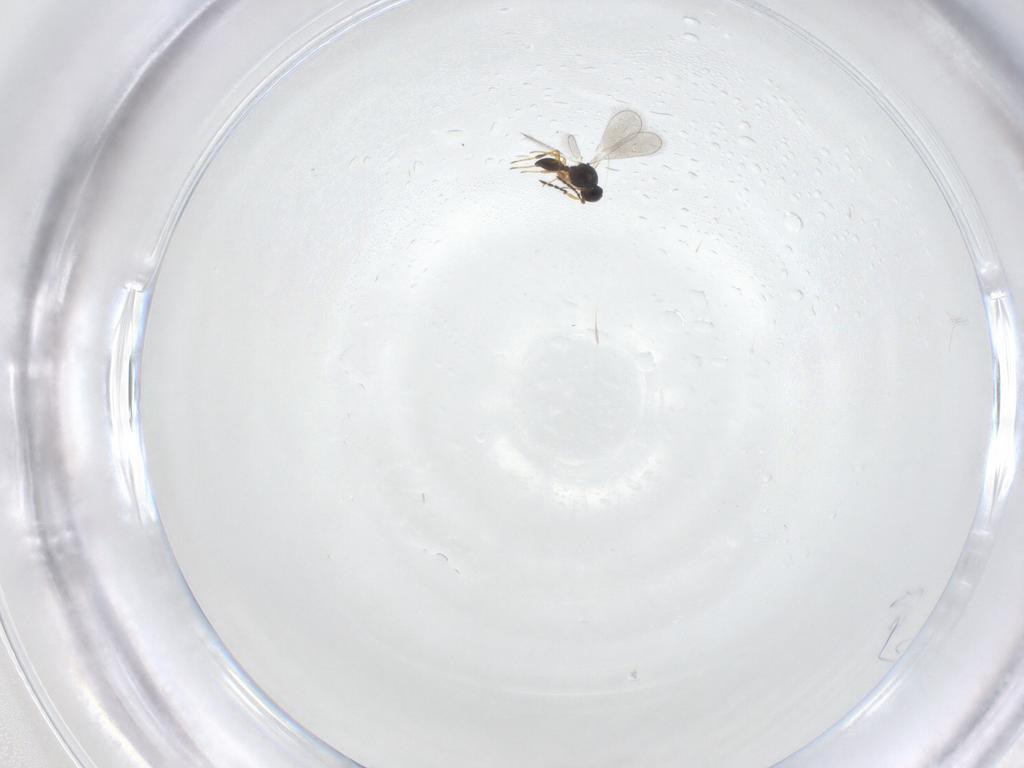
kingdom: Animalia
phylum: Arthropoda
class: Insecta
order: Hymenoptera
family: Platygastridae
